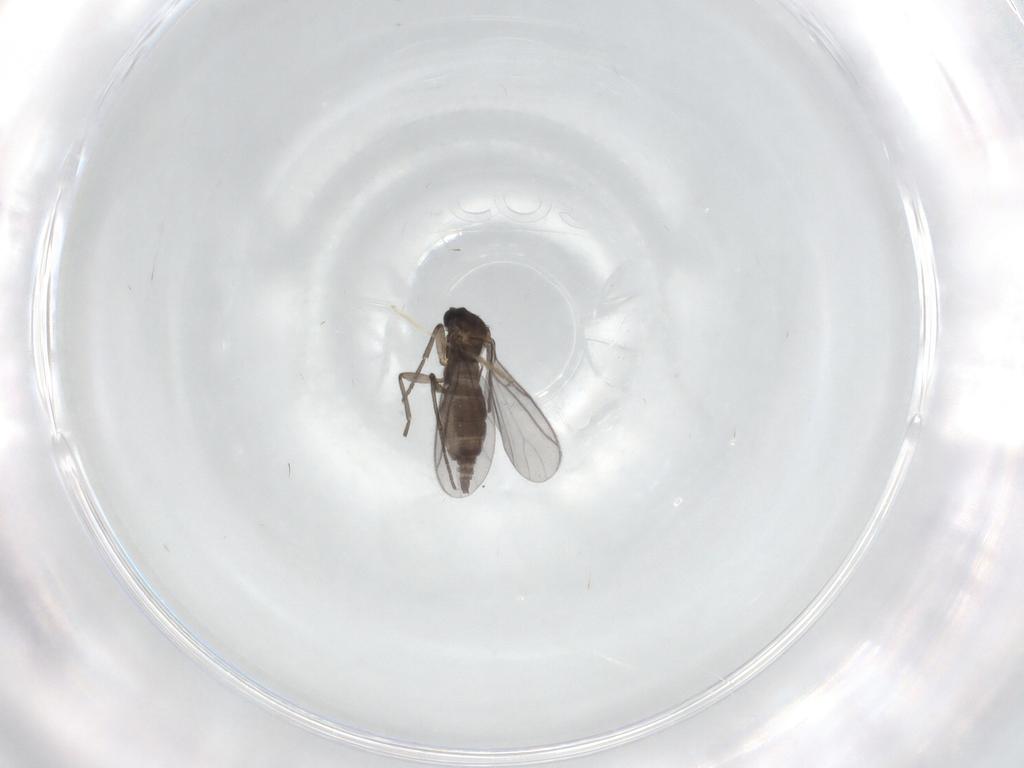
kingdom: Animalia
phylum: Arthropoda
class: Insecta
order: Diptera
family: Chironomidae
